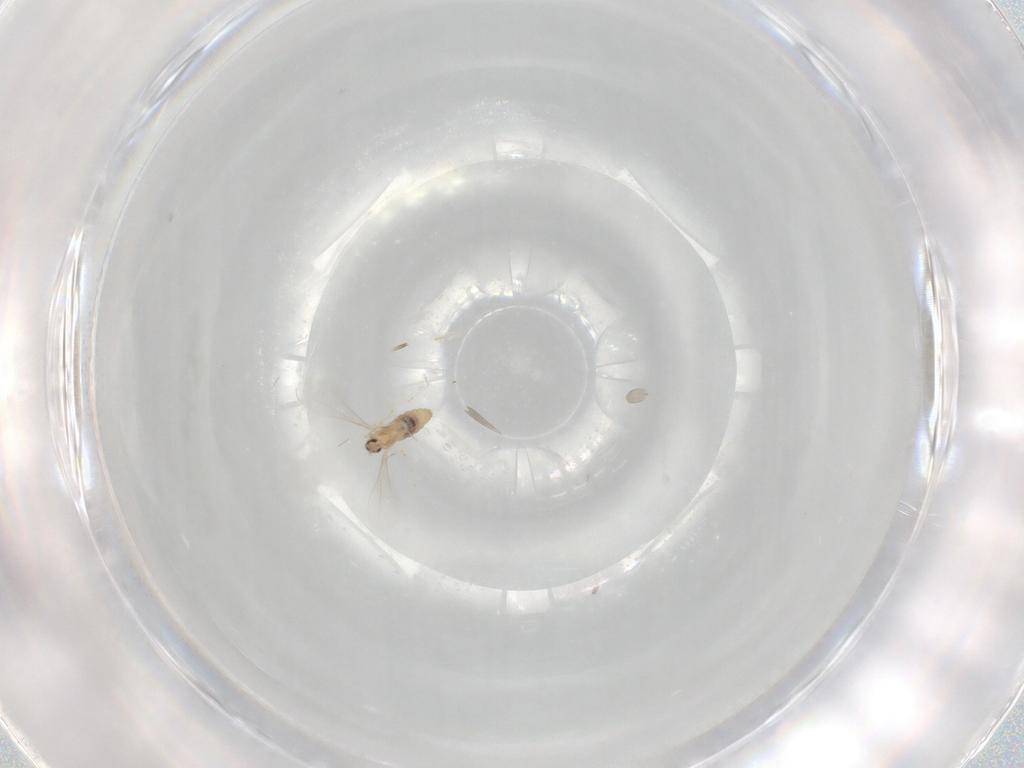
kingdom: Animalia
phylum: Arthropoda
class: Insecta
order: Diptera
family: Cecidomyiidae
